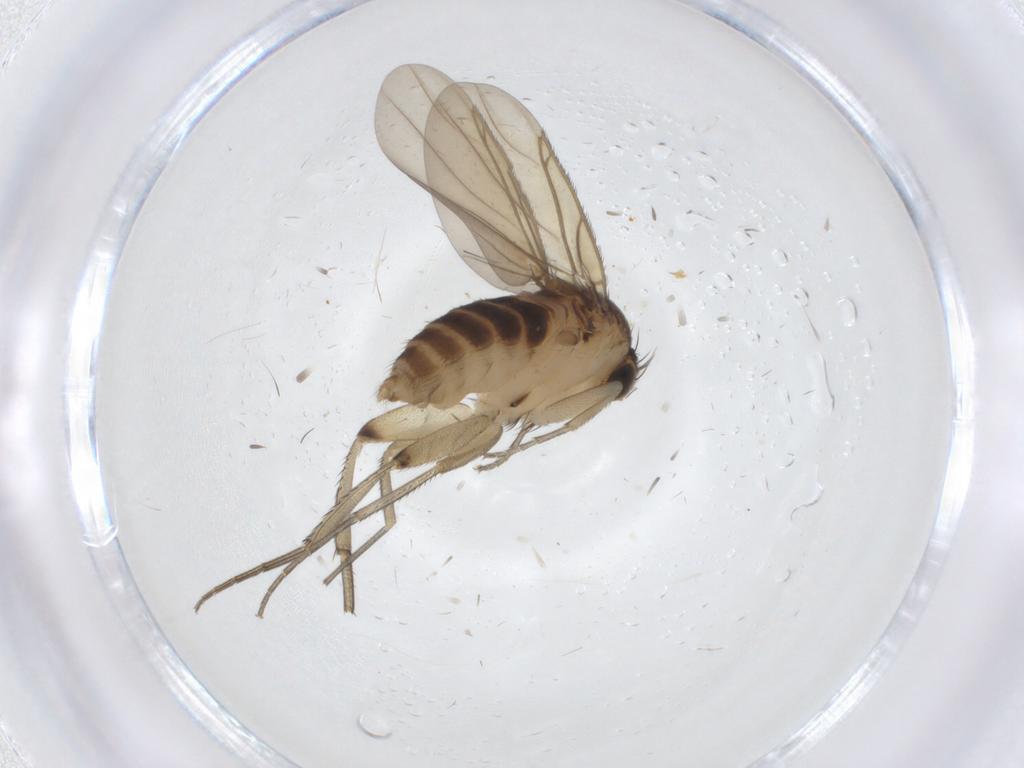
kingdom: Animalia
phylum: Arthropoda
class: Insecta
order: Diptera
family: Phoridae
